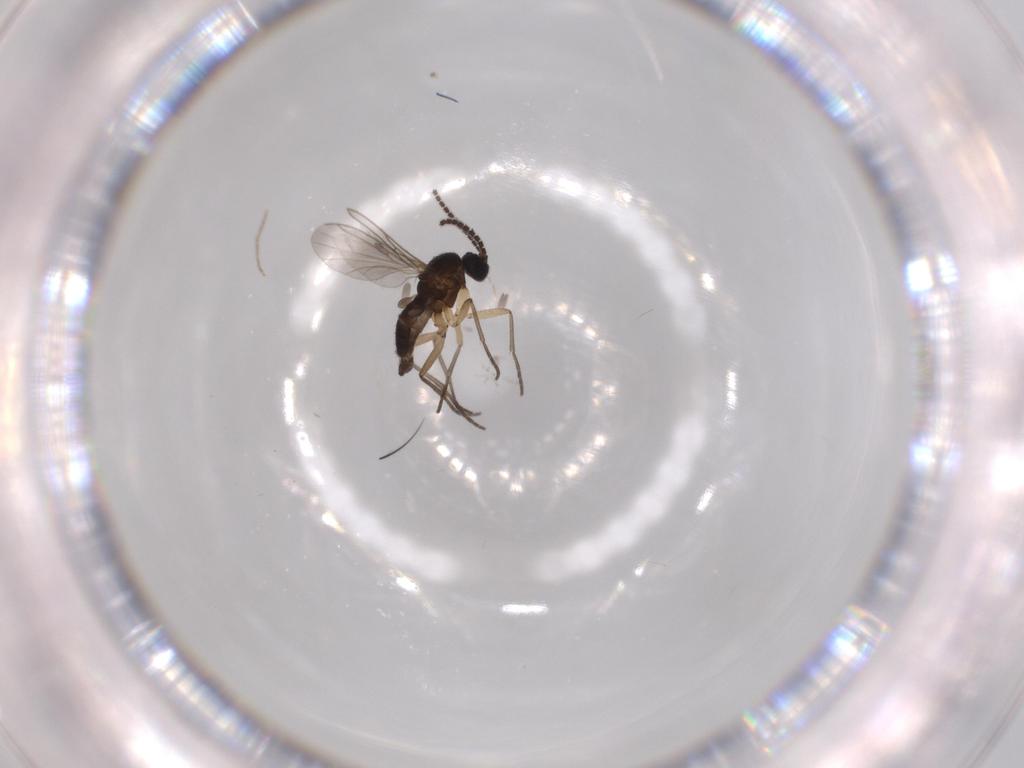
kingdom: Animalia
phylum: Arthropoda
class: Insecta
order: Diptera
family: Sciaridae
